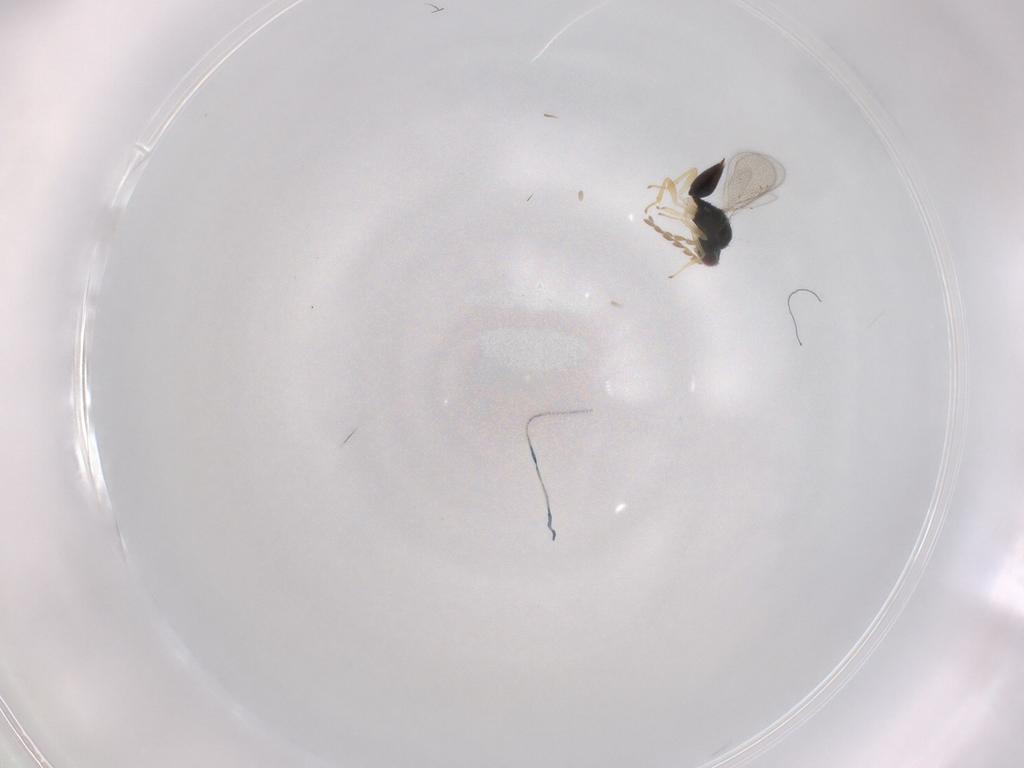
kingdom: Animalia
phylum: Arthropoda
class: Insecta
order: Hymenoptera
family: Eulophidae
